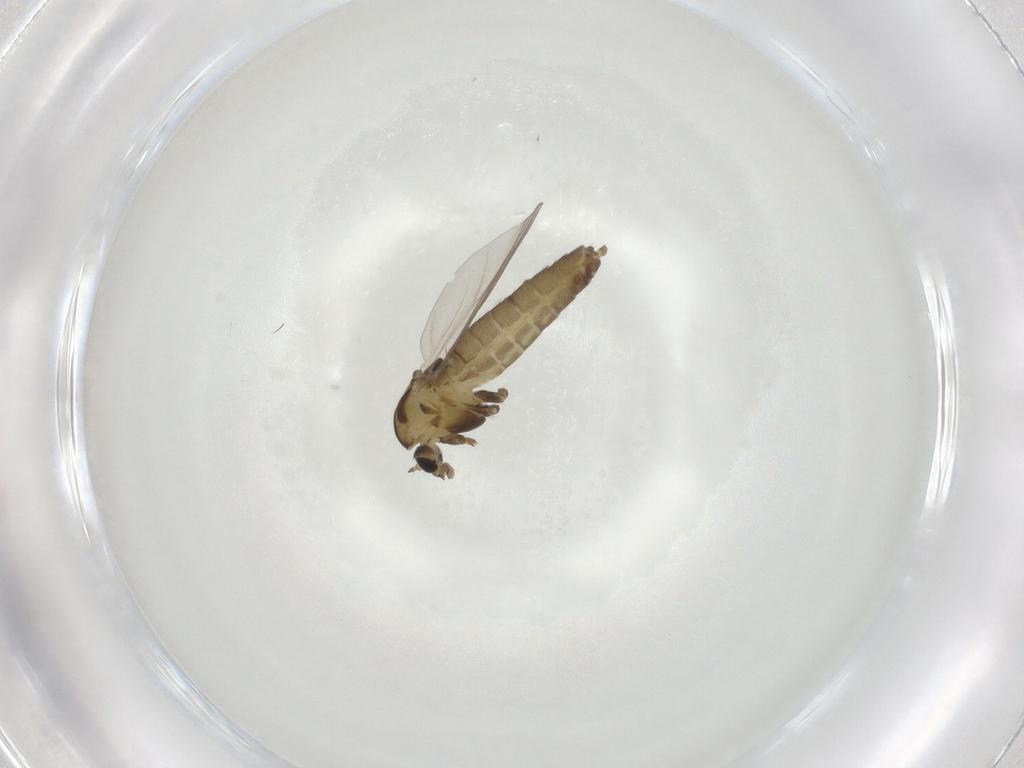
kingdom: Animalia
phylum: Arthropoda
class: Insecta
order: Diptera
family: Chironomidae
